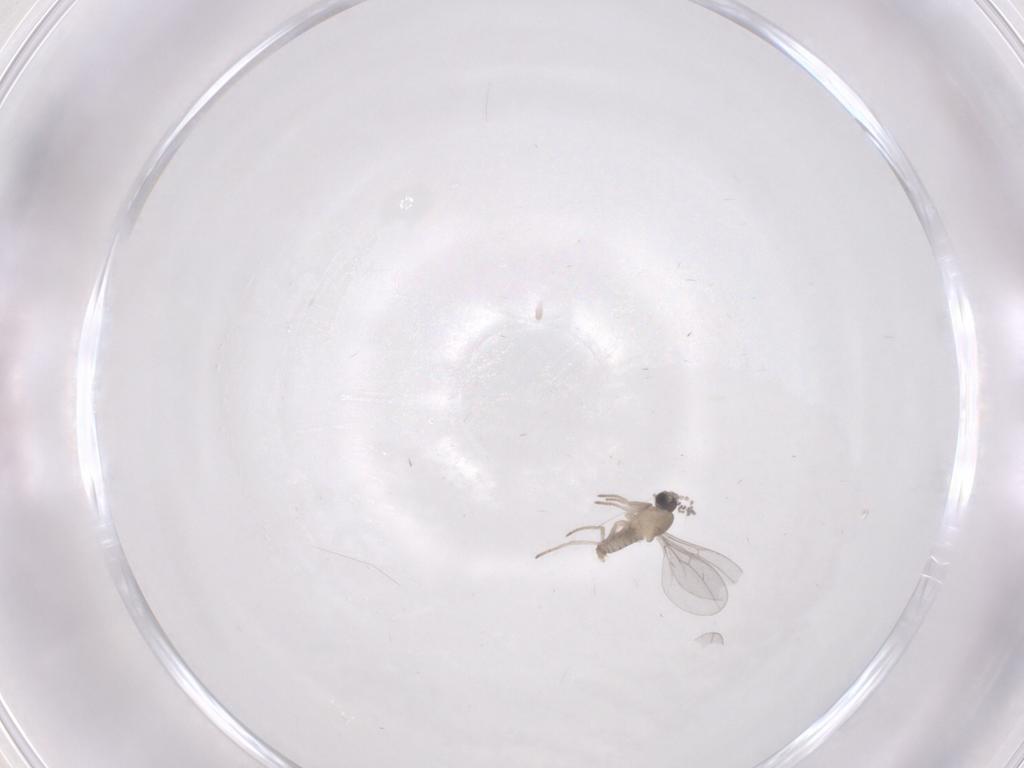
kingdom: Animalia
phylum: Arthropoda
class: Insecta
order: Diptera
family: Cecidomyiidae
